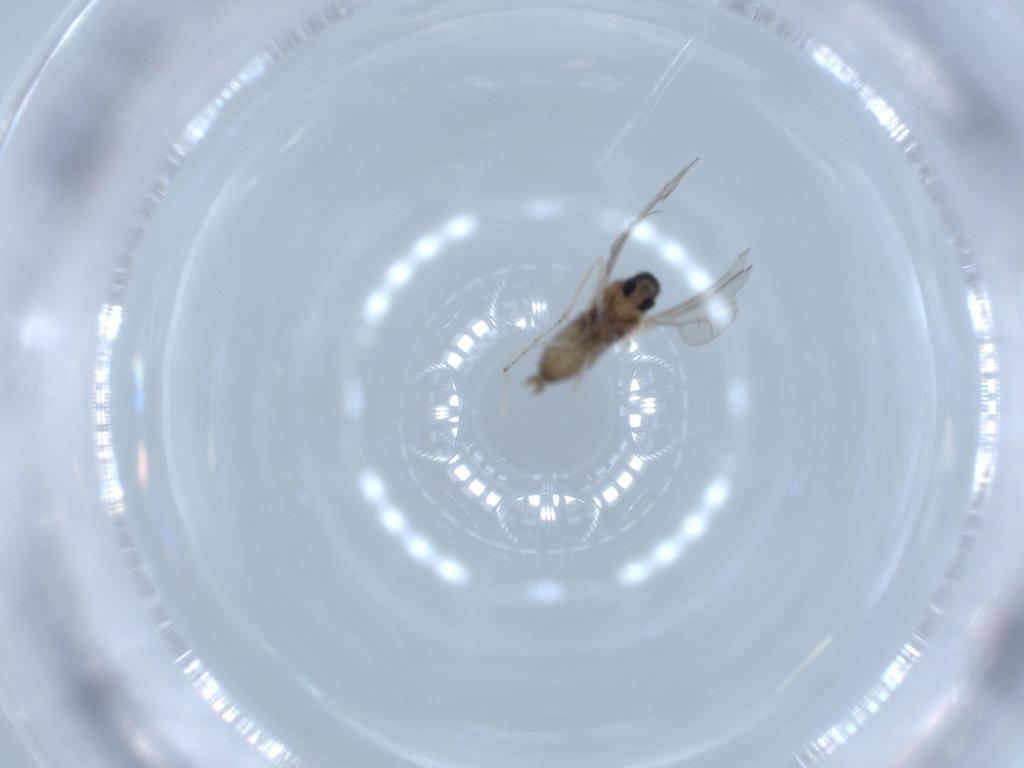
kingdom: Animalia
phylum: Arthropoda
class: Insecta
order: Diptera
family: Cecidomyiidae
